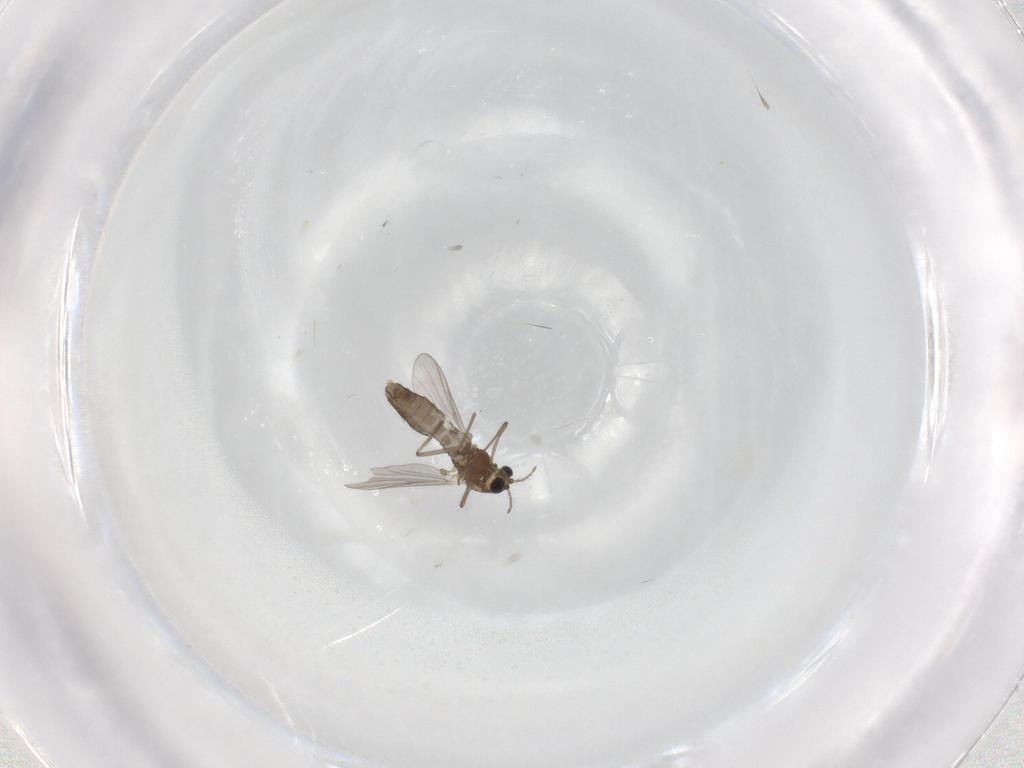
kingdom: Animalia
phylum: Arthropoda
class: Insecta
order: Diptera
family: Chironomidae
